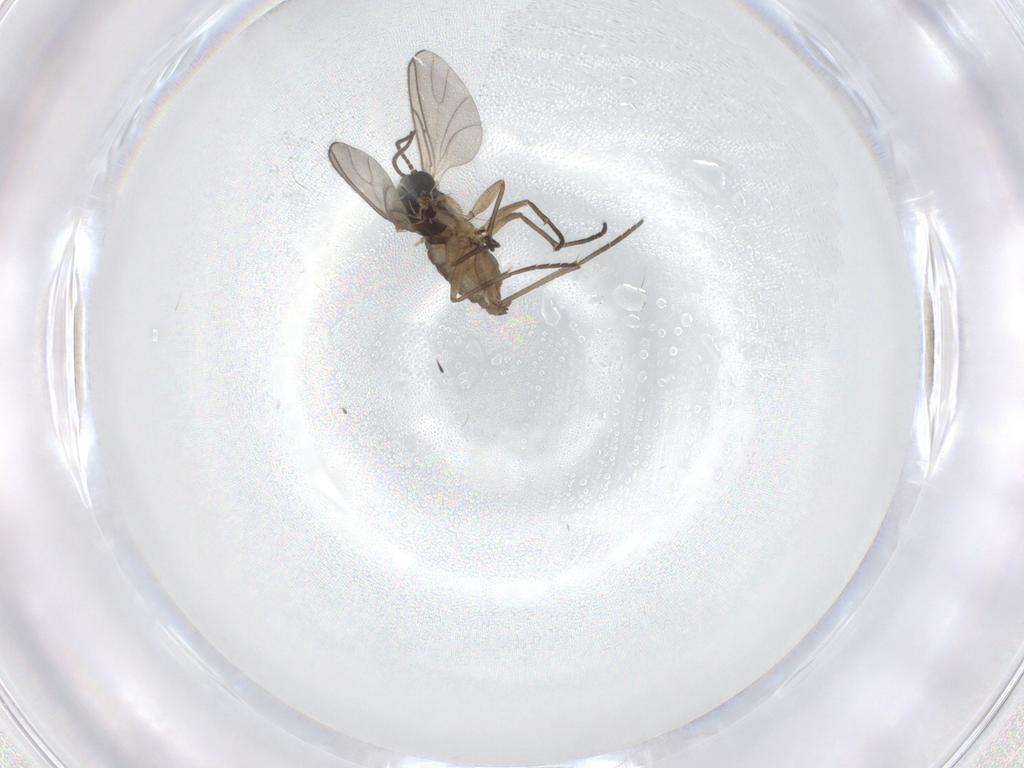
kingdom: Animalia
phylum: Arthropoda
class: Insecta
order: Diptera
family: Sciaridae
